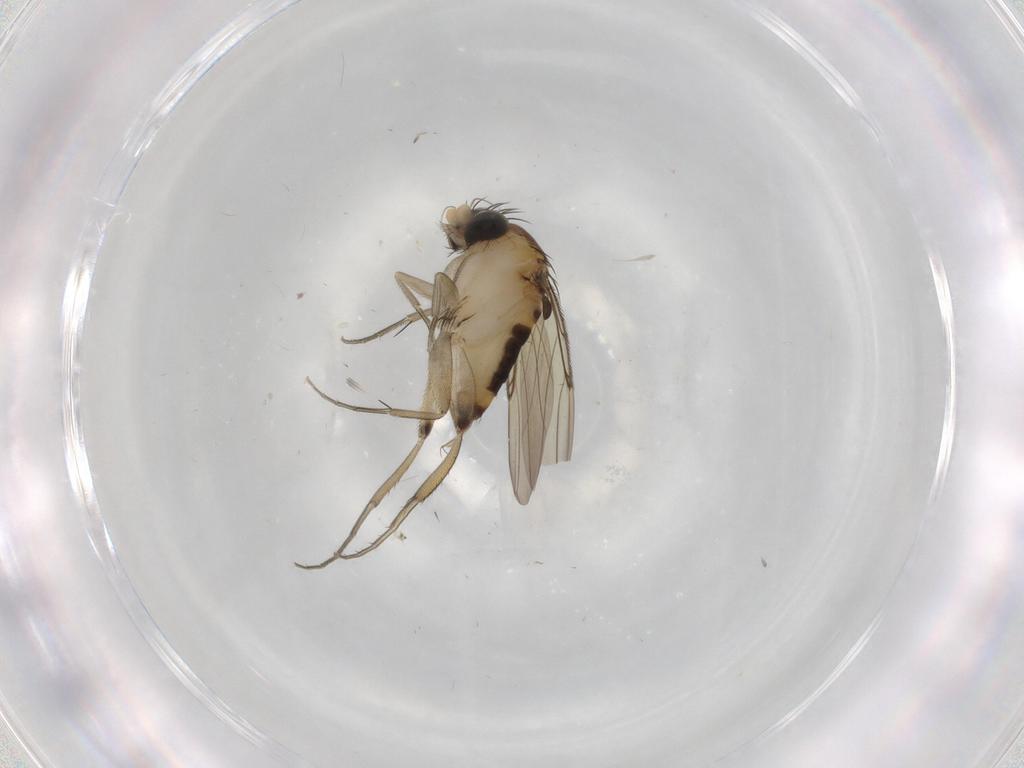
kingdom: Animalia
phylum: Arthropoda
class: Insecta
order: Diptera
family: Phoridae
